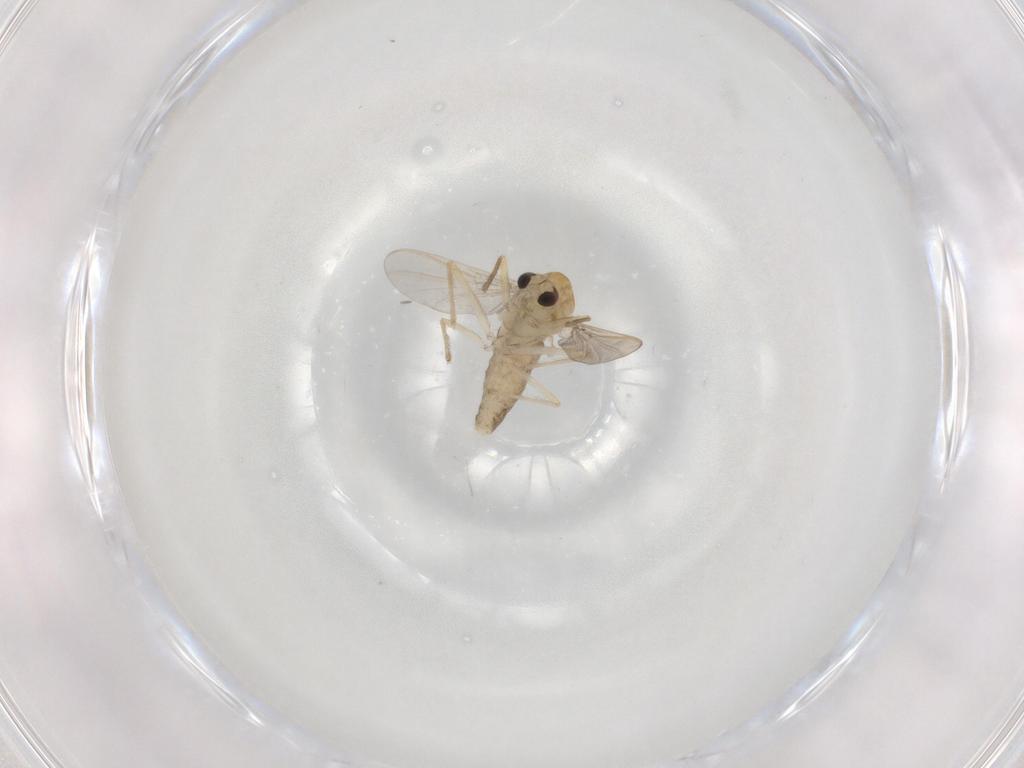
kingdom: Animalia
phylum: Arthropoda
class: Insecta
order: Diptera
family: Chironomidae
